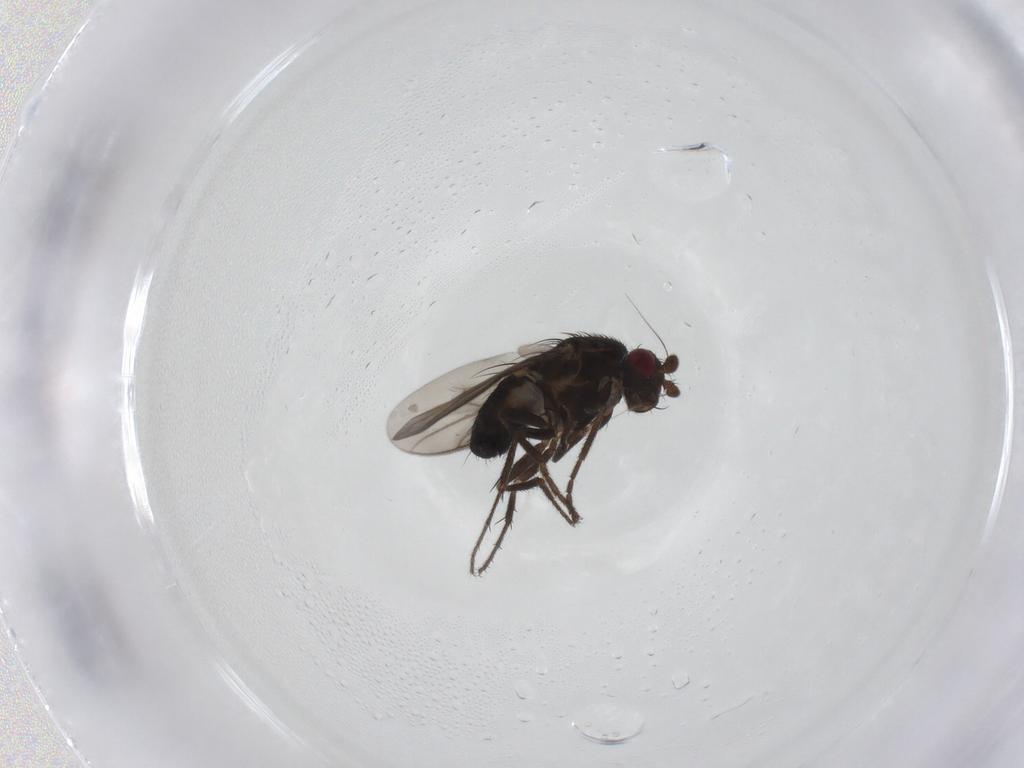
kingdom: Animalia
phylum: Arthropoda
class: Insecta
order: Diptera
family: Sphaeroceridae
